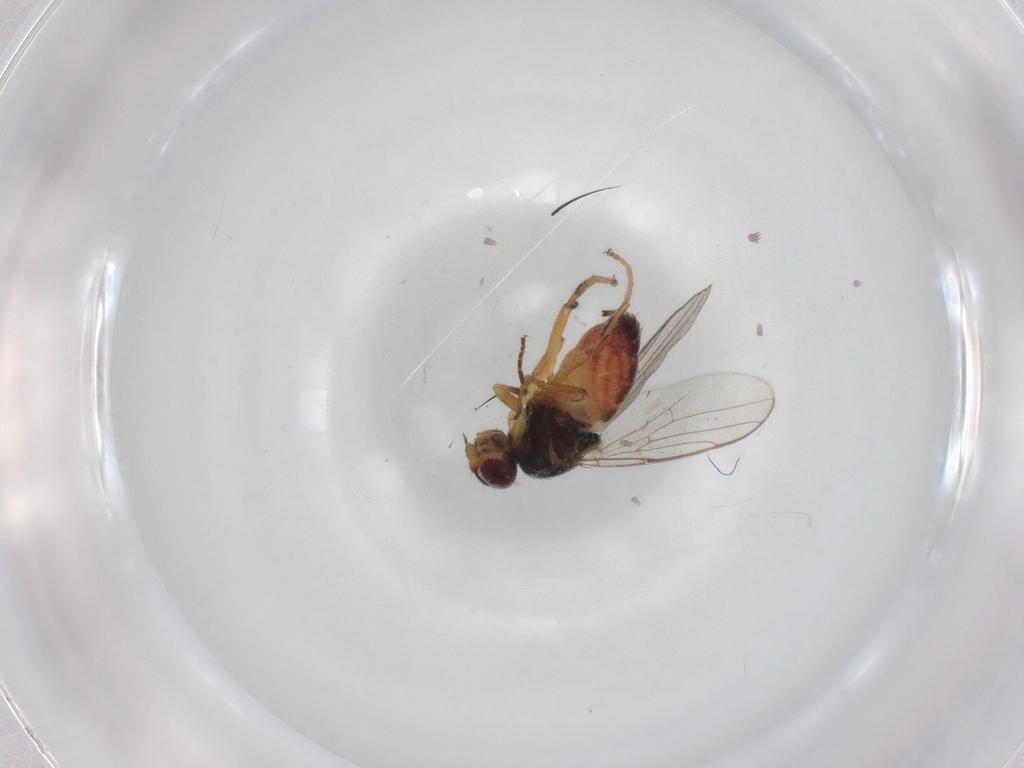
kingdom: Animalia
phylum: Arthropoda
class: Insecta
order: Diptera
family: Chloropidae
